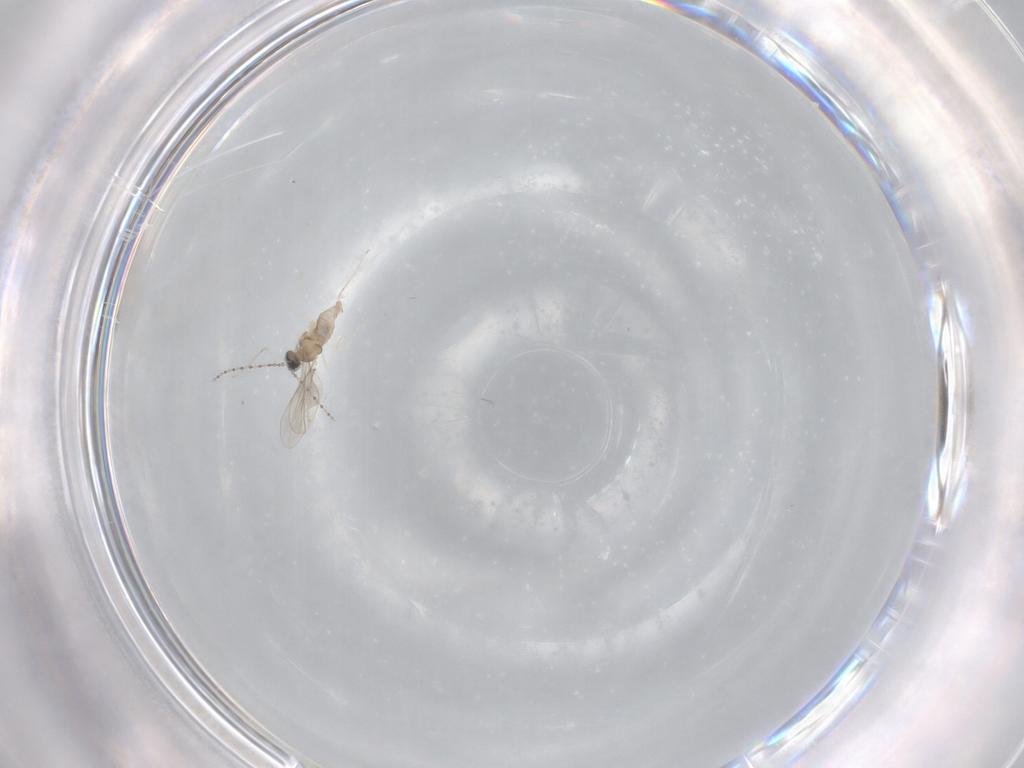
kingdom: Animalia
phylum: Arthropoda
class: Insecta
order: Diptera
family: Cecidomyiidae
